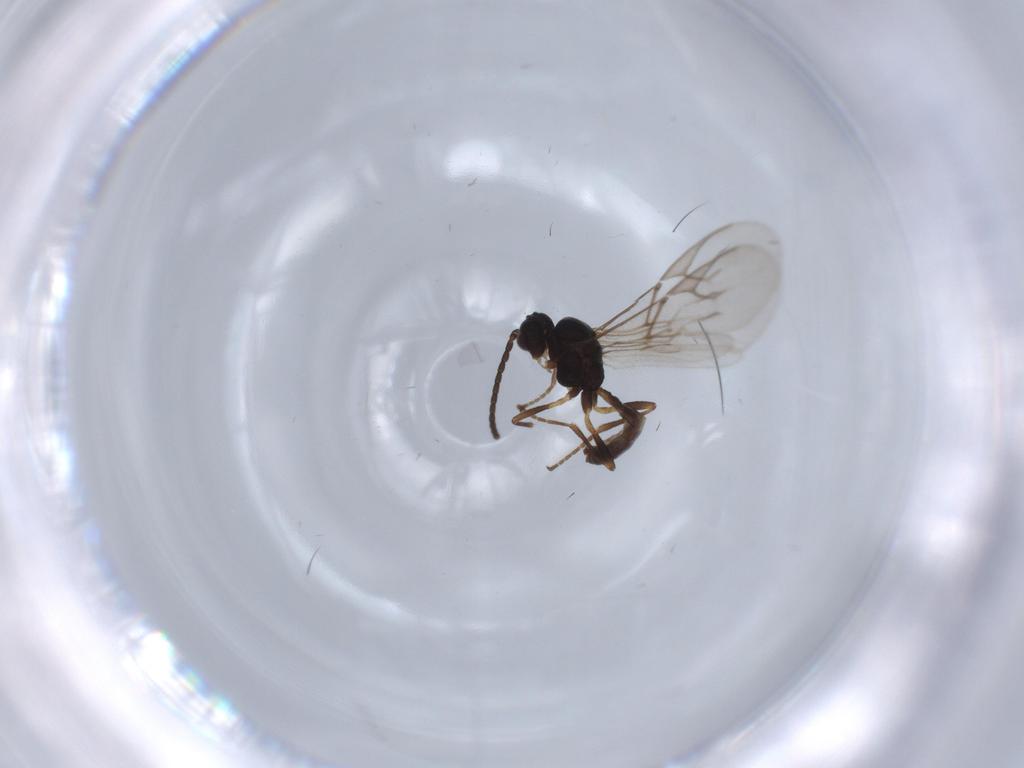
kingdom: Animalia
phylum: Arthropoda
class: Insecta
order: Hymenoptera
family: Braconidae
